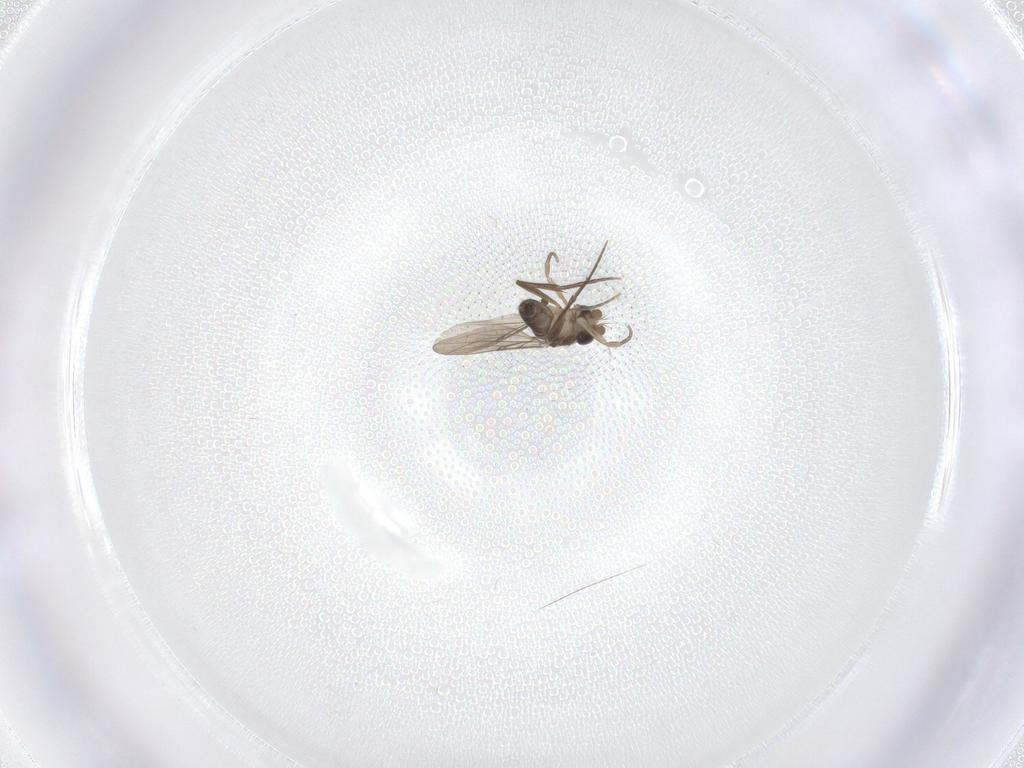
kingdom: Animalia
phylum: Arthropoda
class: Insecta
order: Diptera
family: Phoridae
